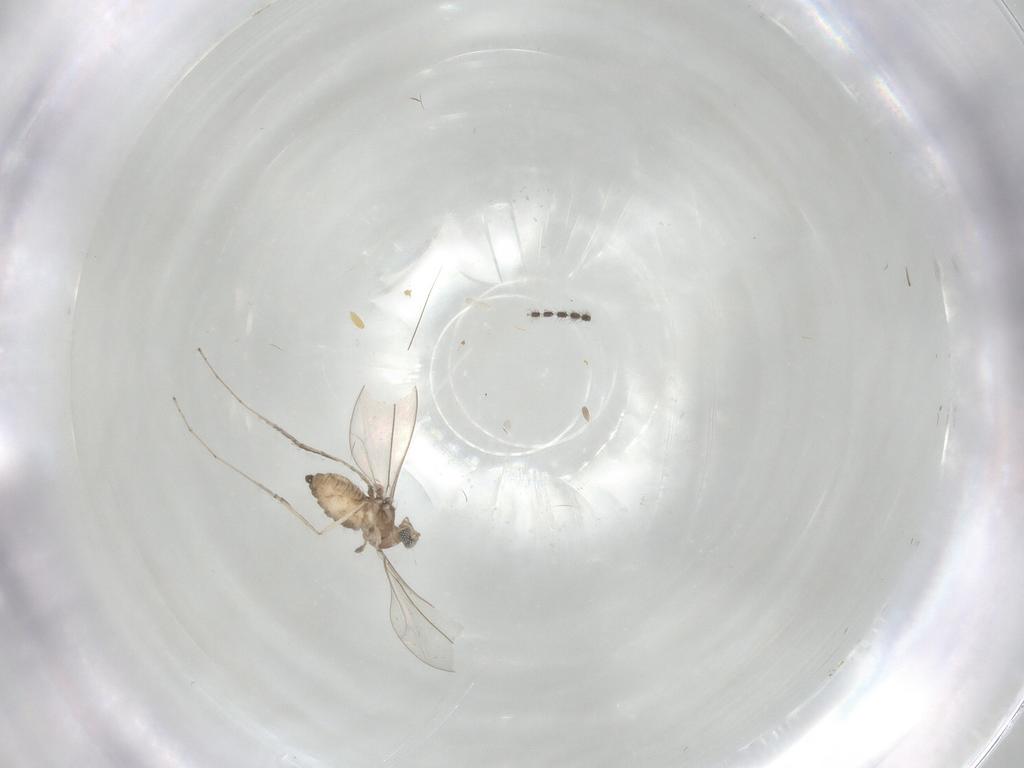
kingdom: Animalia
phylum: Arthropoda
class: Insecta
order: Diptera
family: Cecidomyiidae
